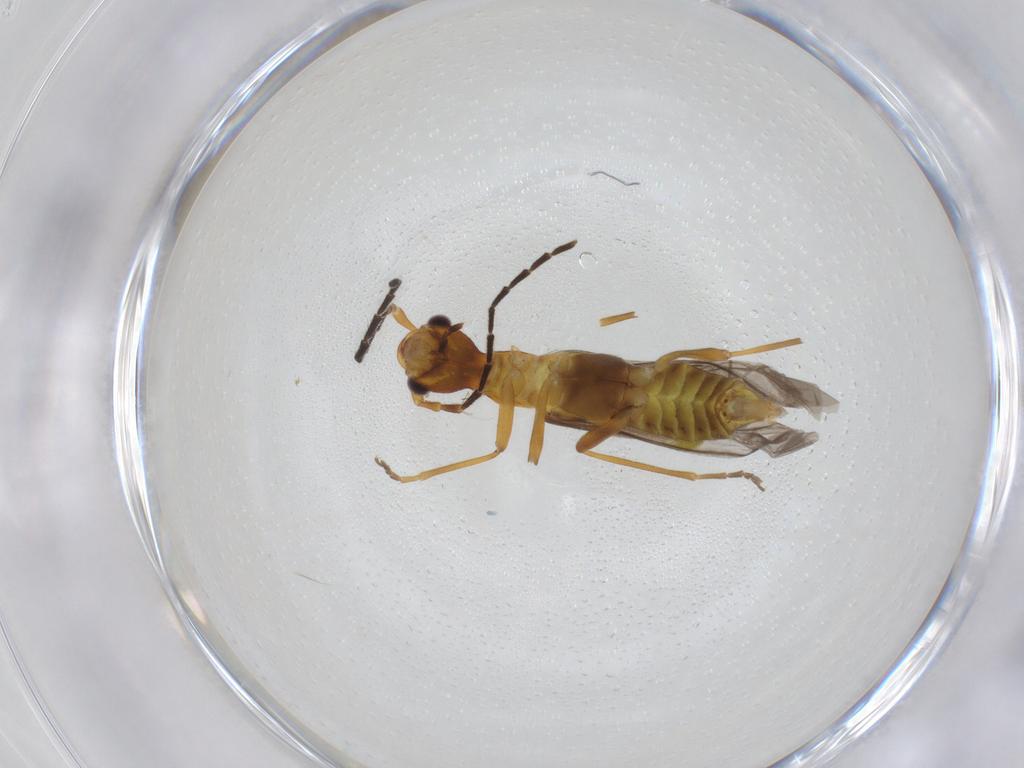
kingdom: Animalia
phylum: Arthropoda
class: Insecta
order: Coleoptera
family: Cantharidae
